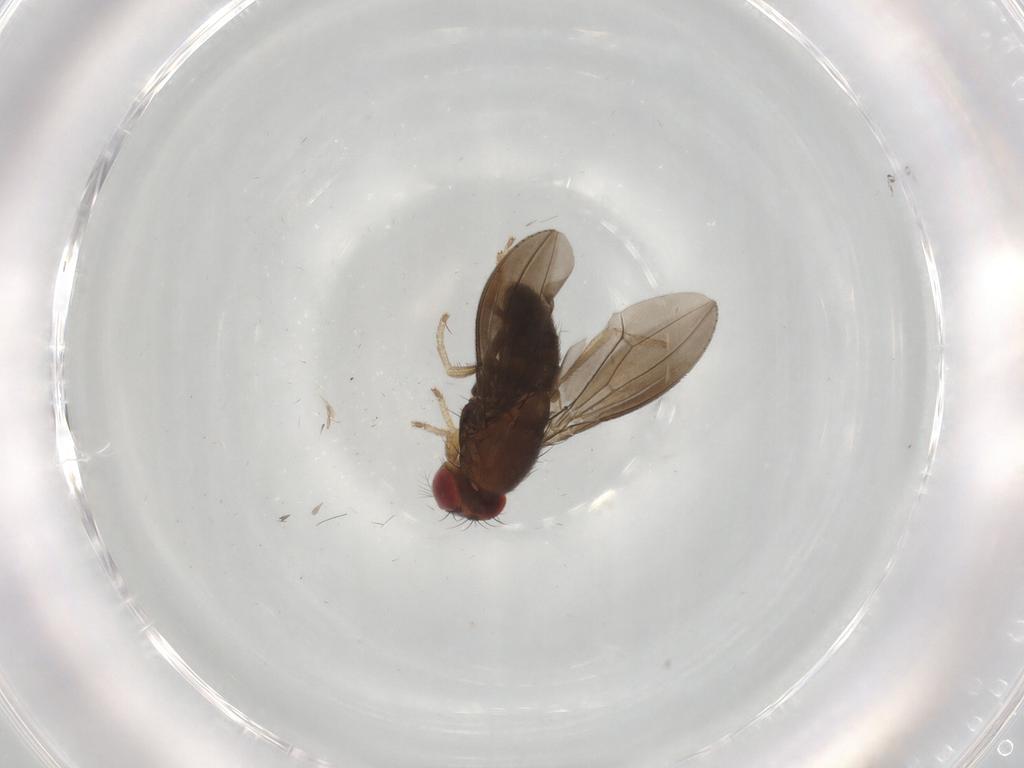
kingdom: Animalia
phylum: Arthropoda
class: Insecta
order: Diptera
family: Drosophilidae
